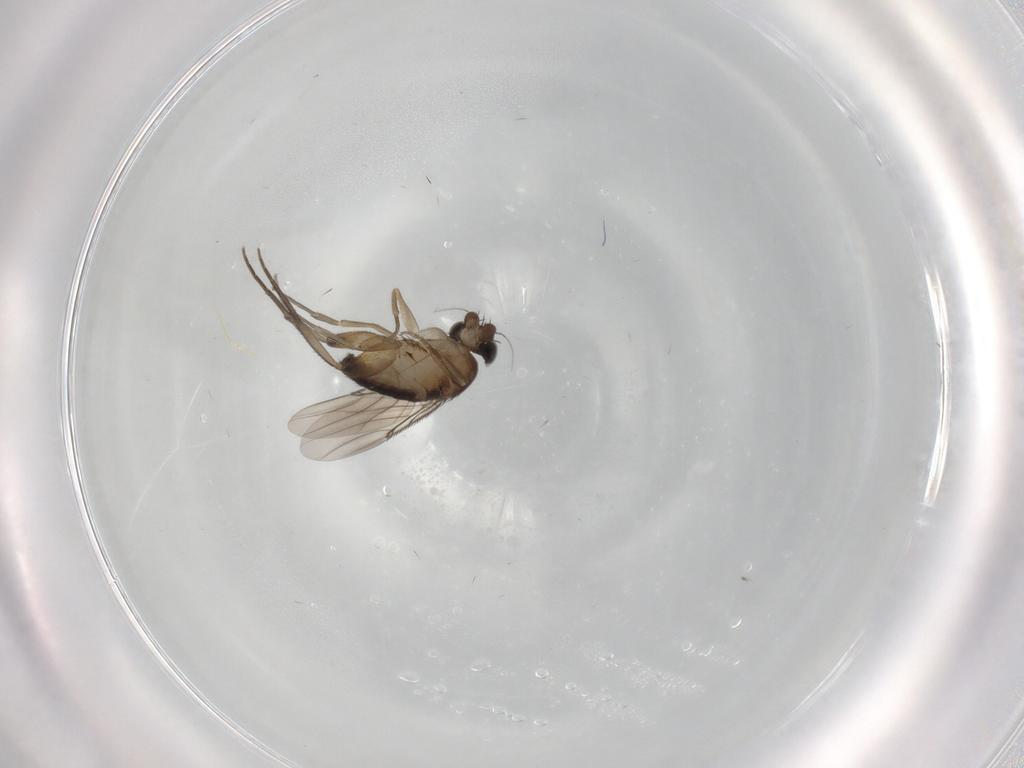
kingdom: Animalia
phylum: Arthropoda
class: Insecta
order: Diptera
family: Phoridae
